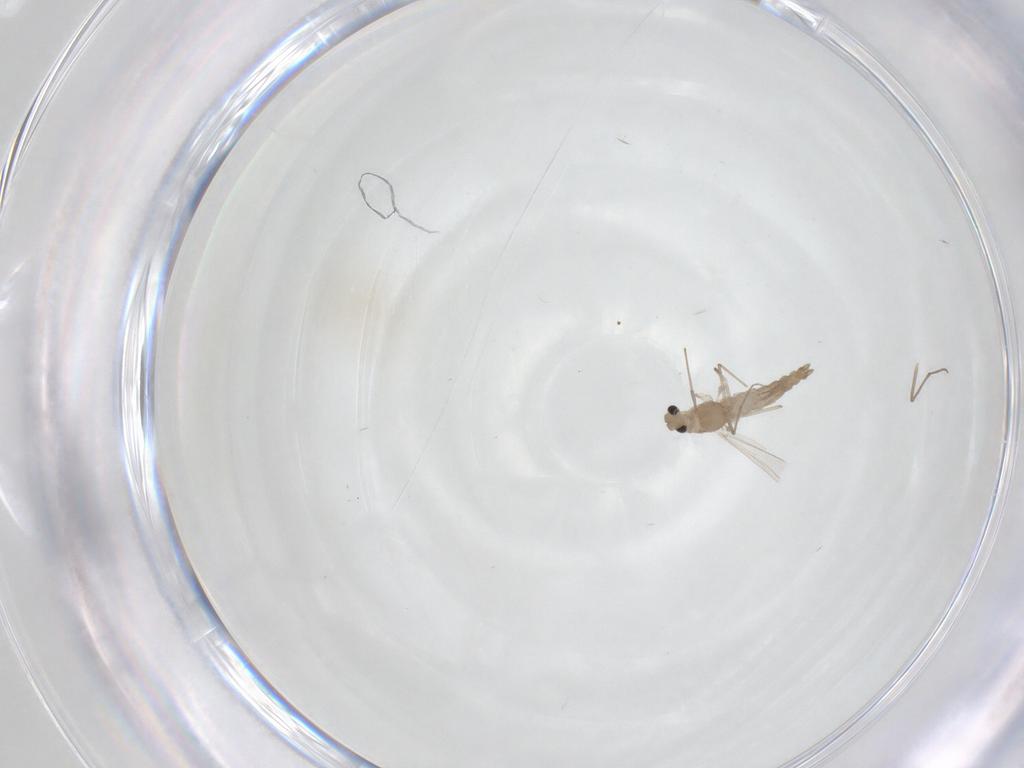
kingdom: Animalia
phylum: Arthropoda
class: Insecta
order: Diptera
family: Chironomidae
